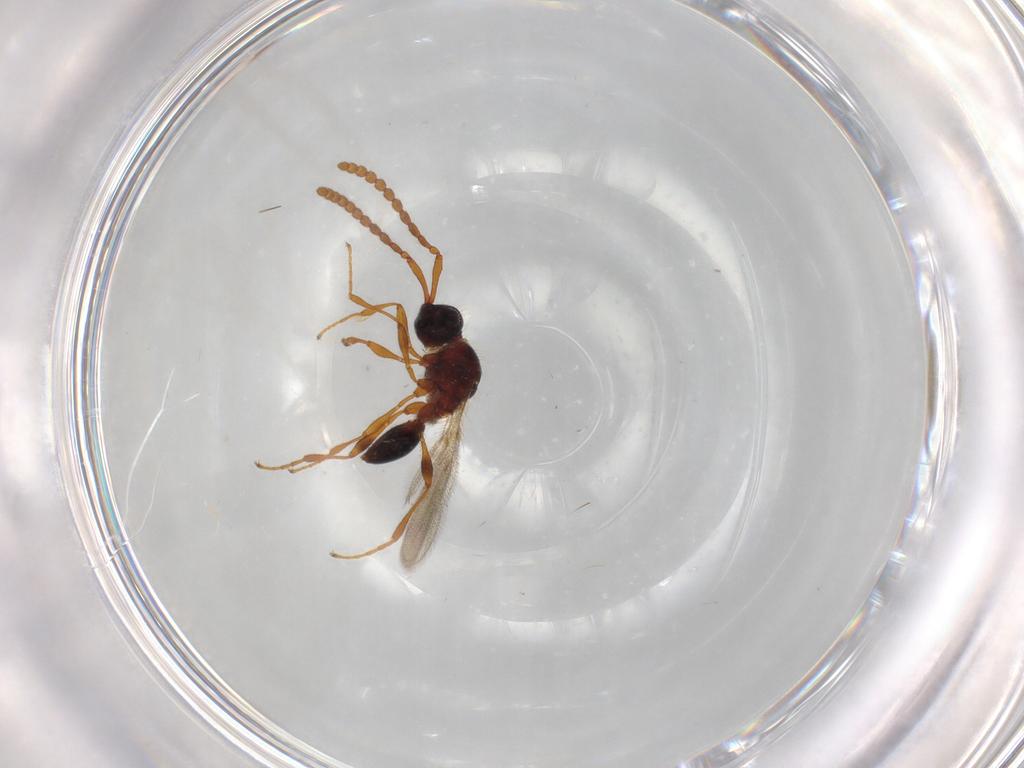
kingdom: Animalia
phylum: Arthropoda
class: Insecta
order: Hymenoptera
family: Diapriidae
